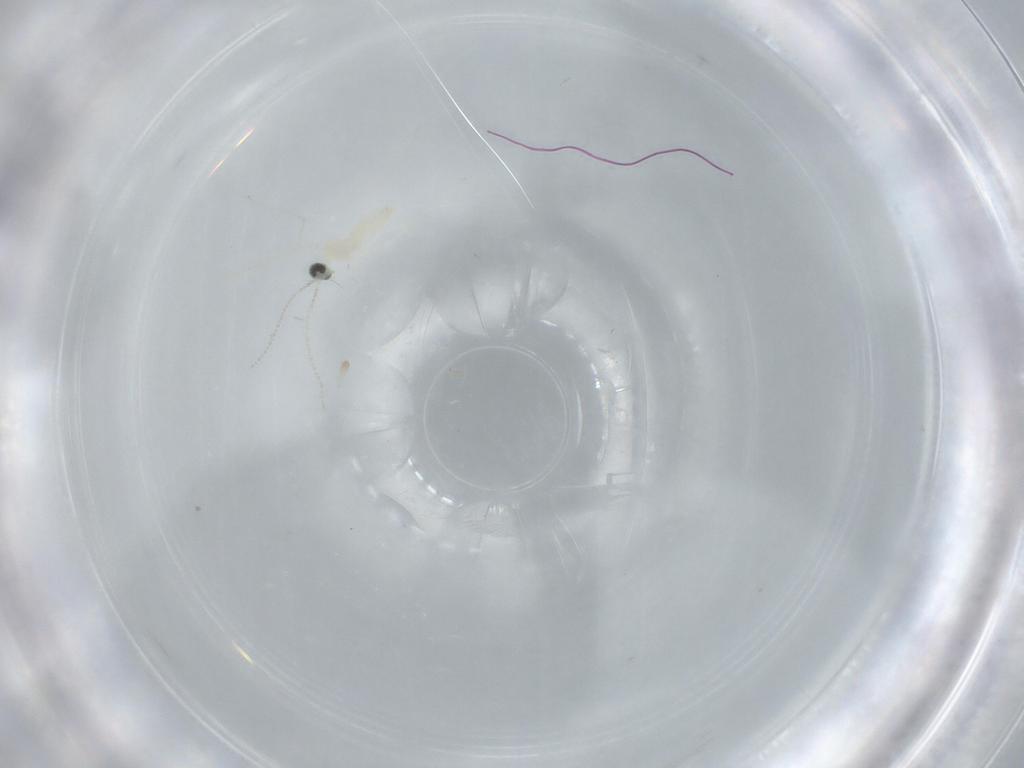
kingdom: Animalia
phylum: Arthropoda
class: Insecta
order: Diptera
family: Cecidomyiidae
